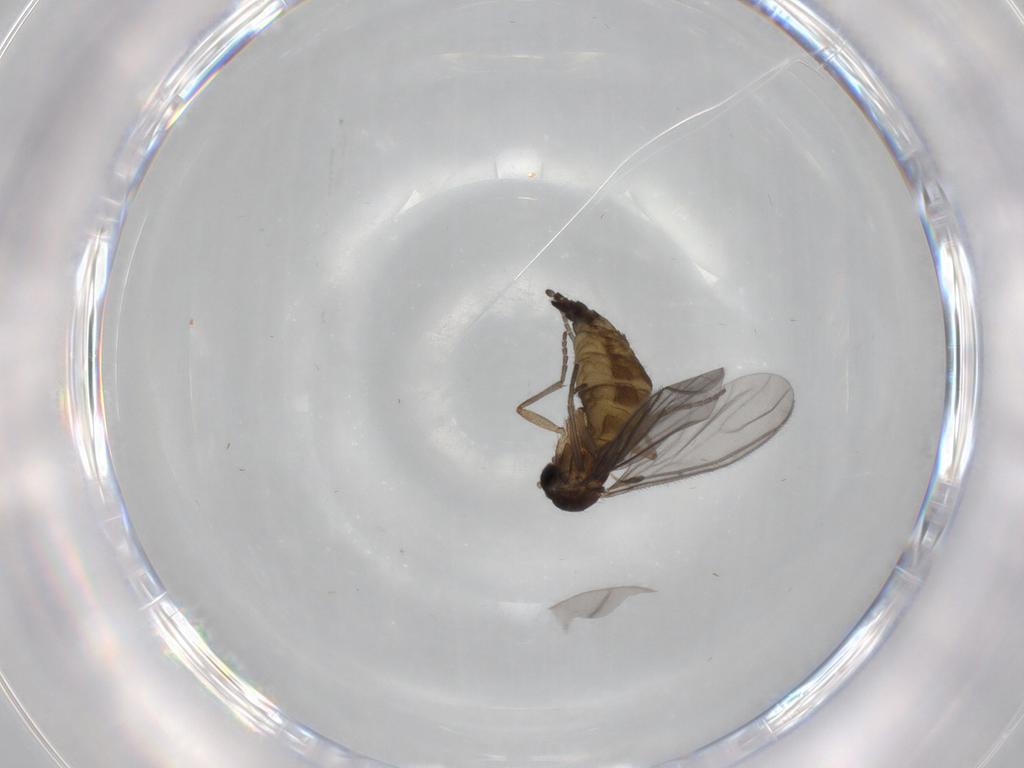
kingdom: Animalia
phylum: Arthropoda
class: Insecta
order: Diptera
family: Sciaridae
